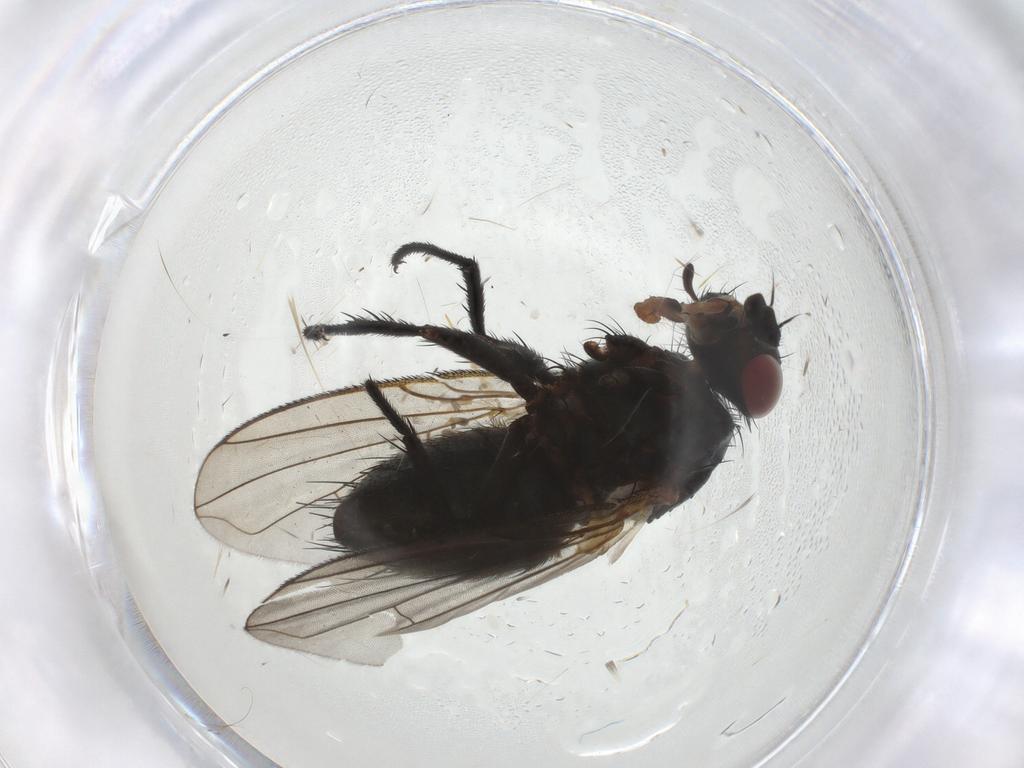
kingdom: Animalia
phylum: Arthropoda
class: Insecta
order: Diptera
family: Tachinidae
